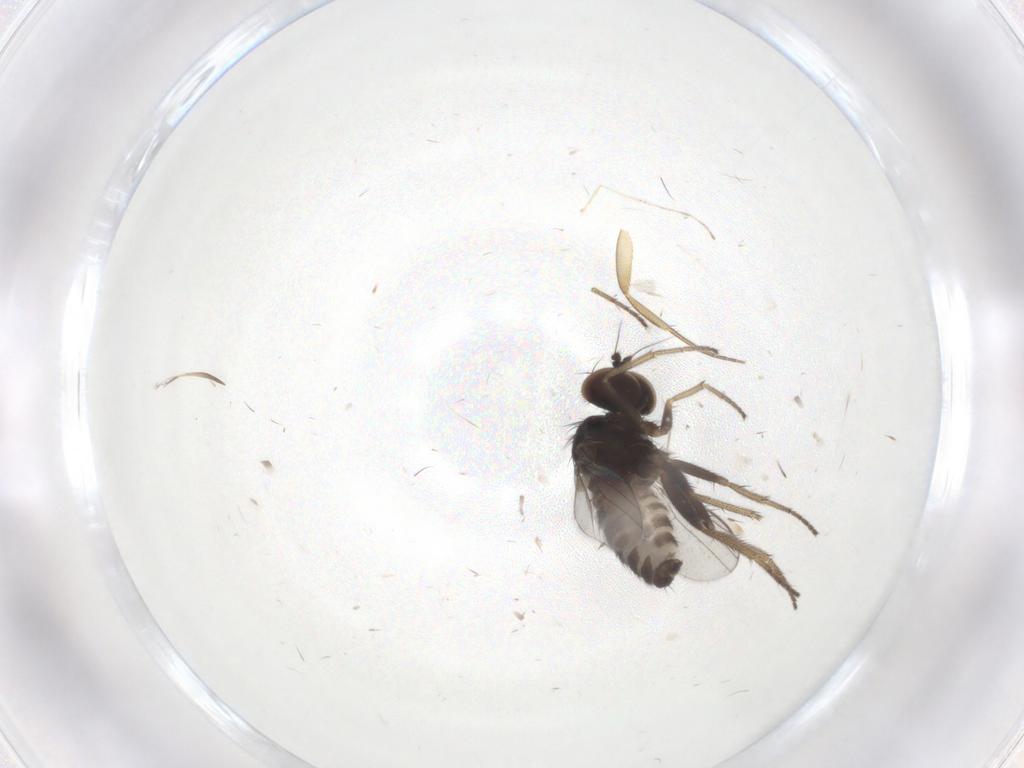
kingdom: Animalia
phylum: Arthropoda
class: Insecta
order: Diptera
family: Dolichopodidae
